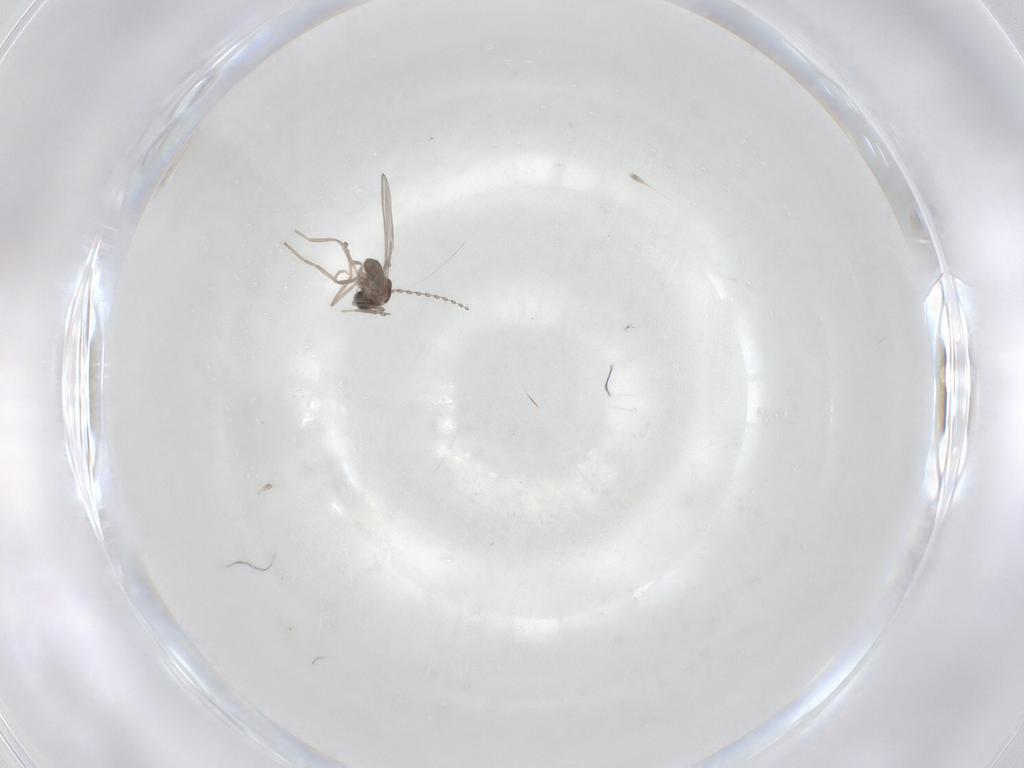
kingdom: Animalia
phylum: Arthropoda
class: Insecta
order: Diptera
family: Cecidomyiidae
